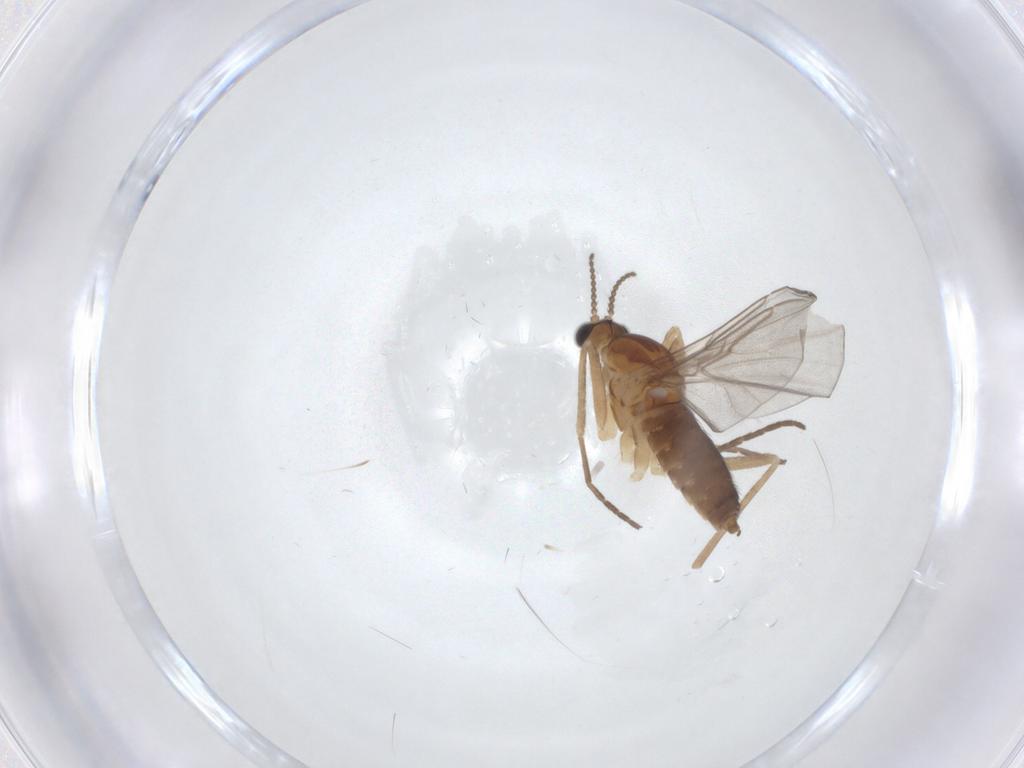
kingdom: Animalia
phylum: Arthropoda
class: Insecta
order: Diptera
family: Cecidomyiidae
